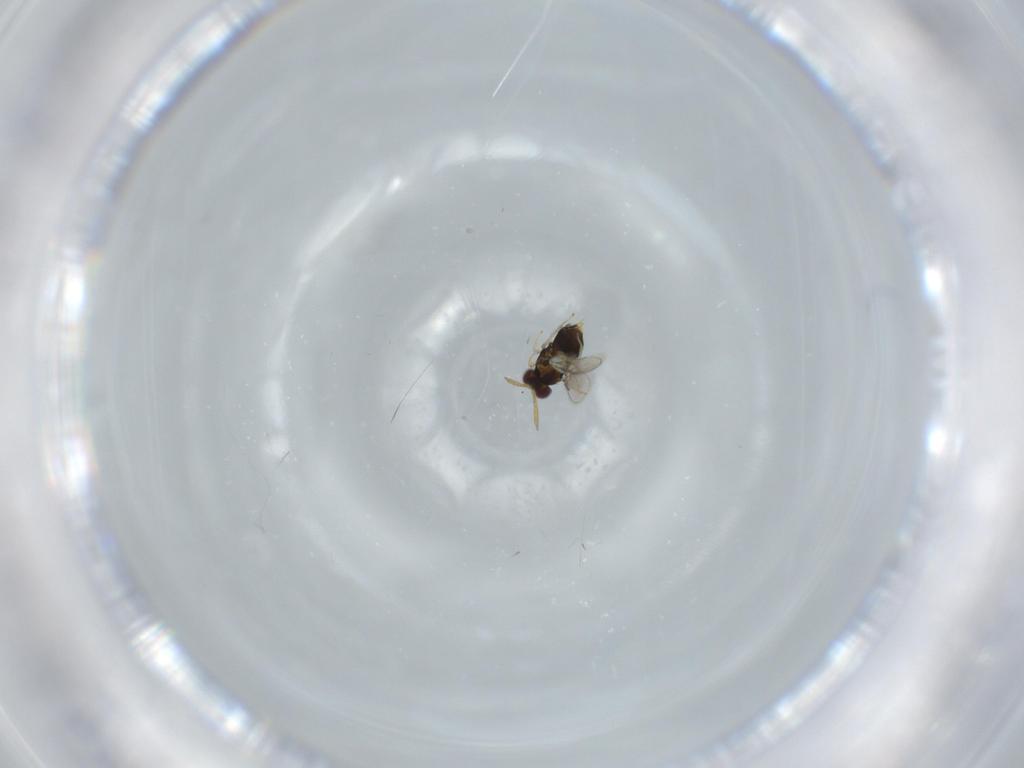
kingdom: Animalia
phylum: Arthropoda
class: Insecta
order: Hymenoptera
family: Aphelinidae
